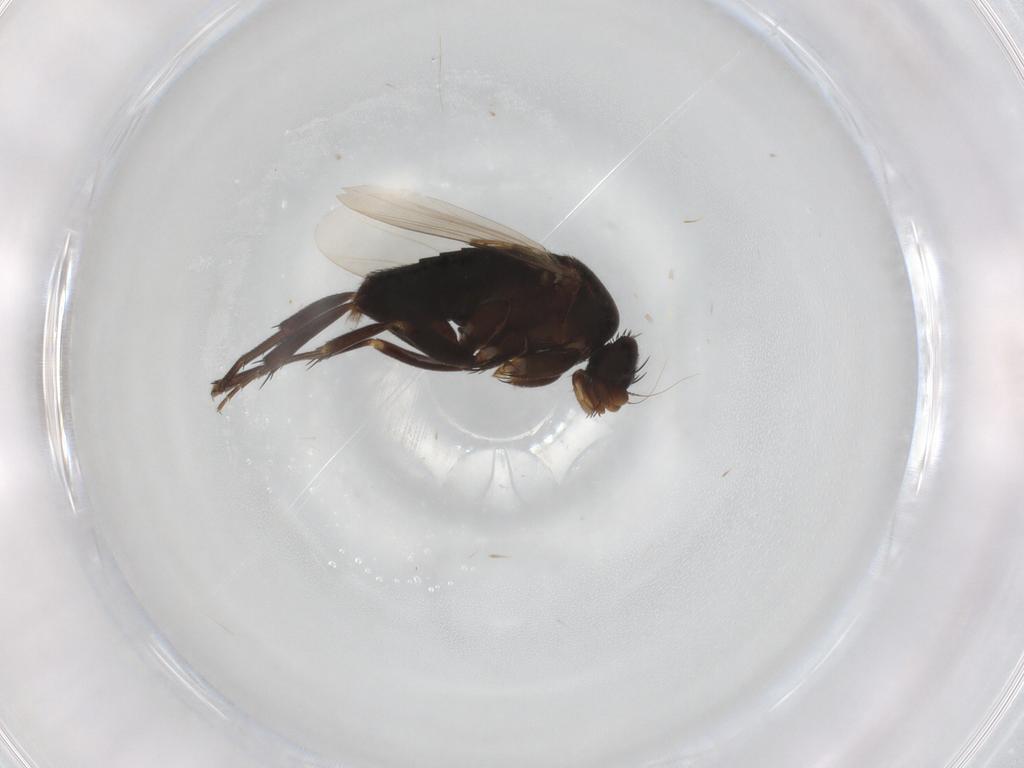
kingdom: Animalia
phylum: Arthropoda
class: Insecta
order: Diptera
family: Phoridae
